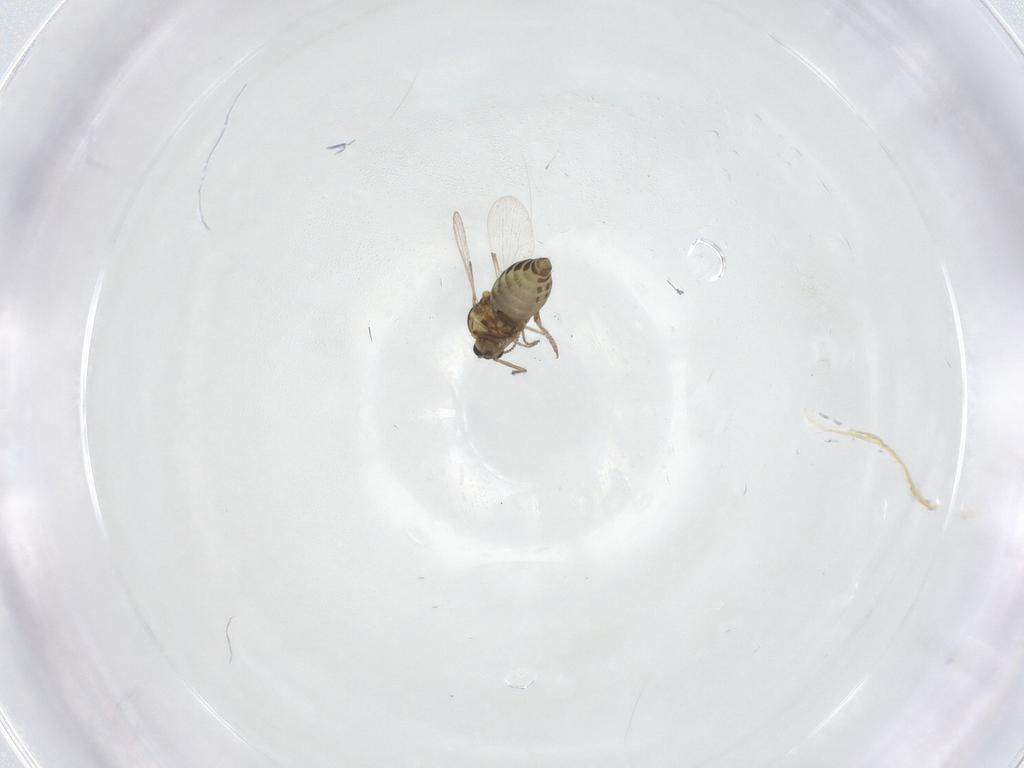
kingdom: Animalia
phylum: Arthropoda
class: Insecta
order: Diptera
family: Ceratopogonidae
